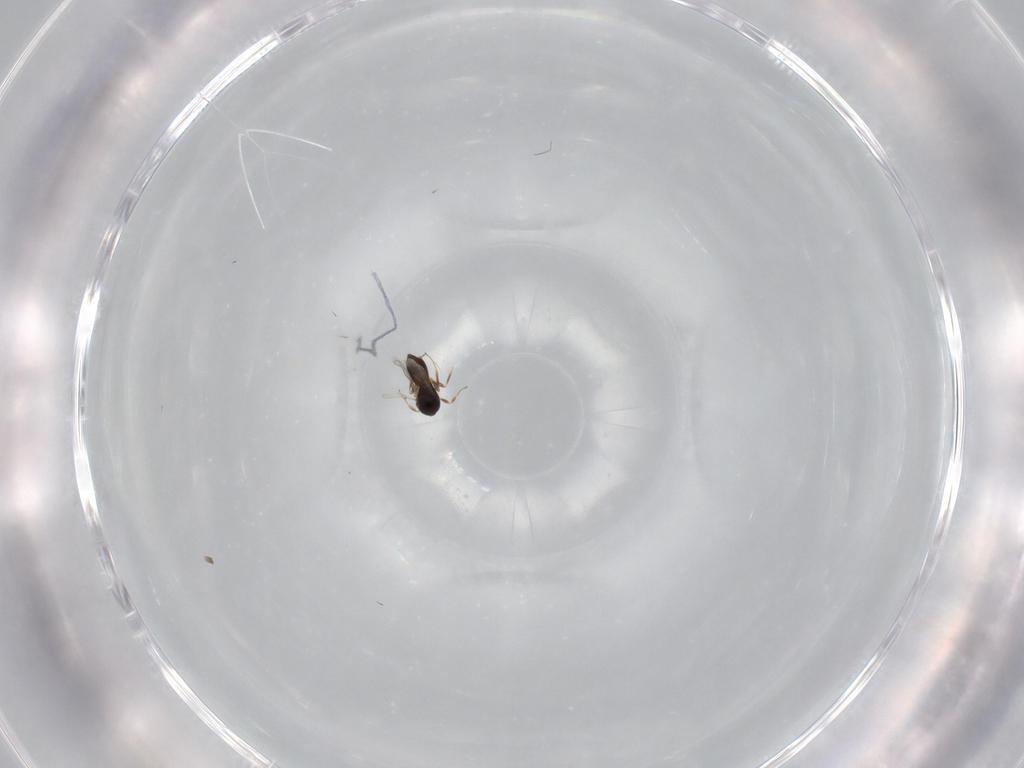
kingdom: Animalia
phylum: Arthropoda
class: Insecta
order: Hymenoptera
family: Scelionidae
